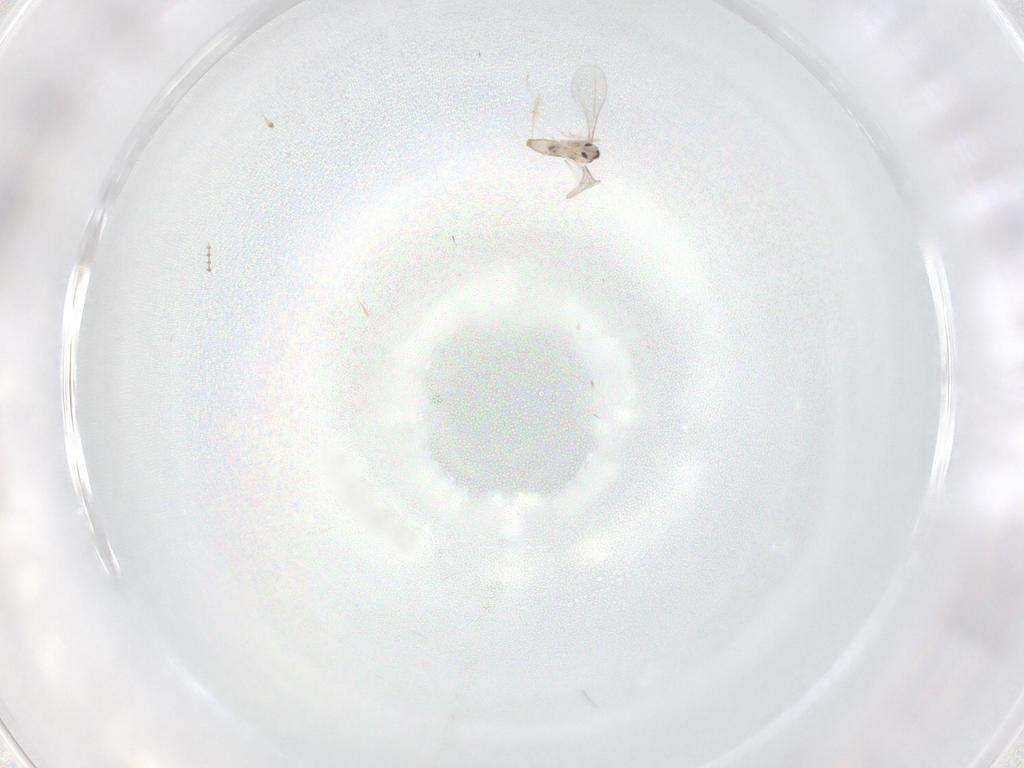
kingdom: Animalia
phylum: Arthropoda
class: Insecta
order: Diptera
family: Cecidomyiidae
